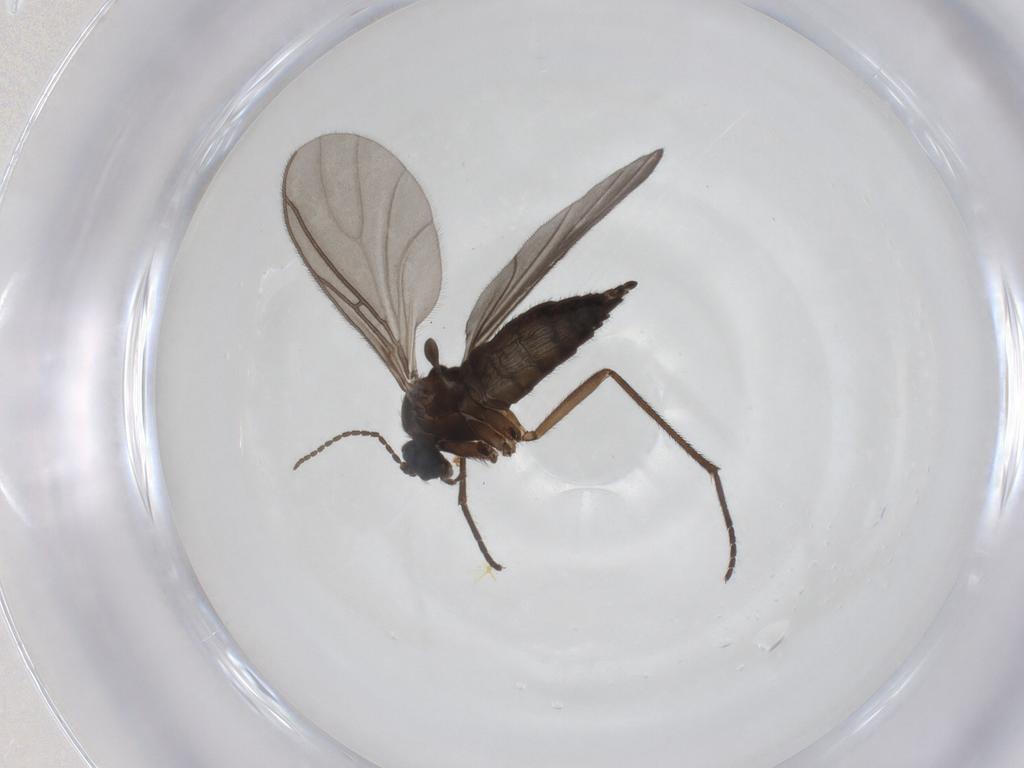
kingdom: Animalia
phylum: Arthropoda
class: Insecta
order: Diptera
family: Sciaridae
